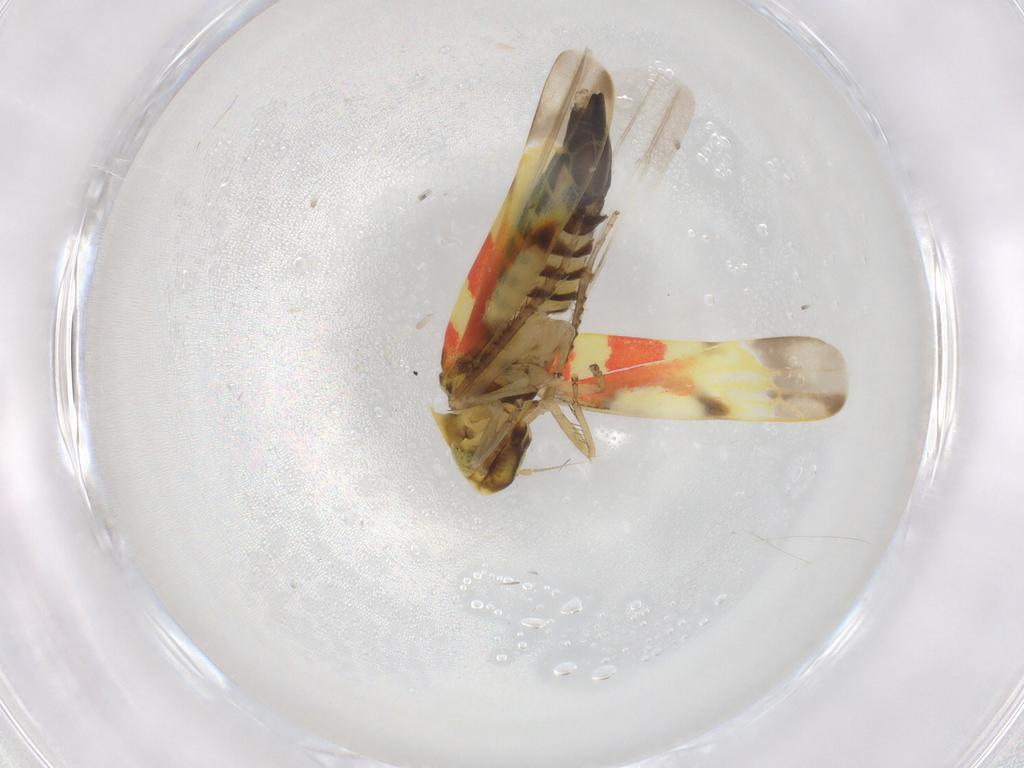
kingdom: Animalia
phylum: Arthropoda
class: Insecta
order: Hemiptera
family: Cicadellidae
